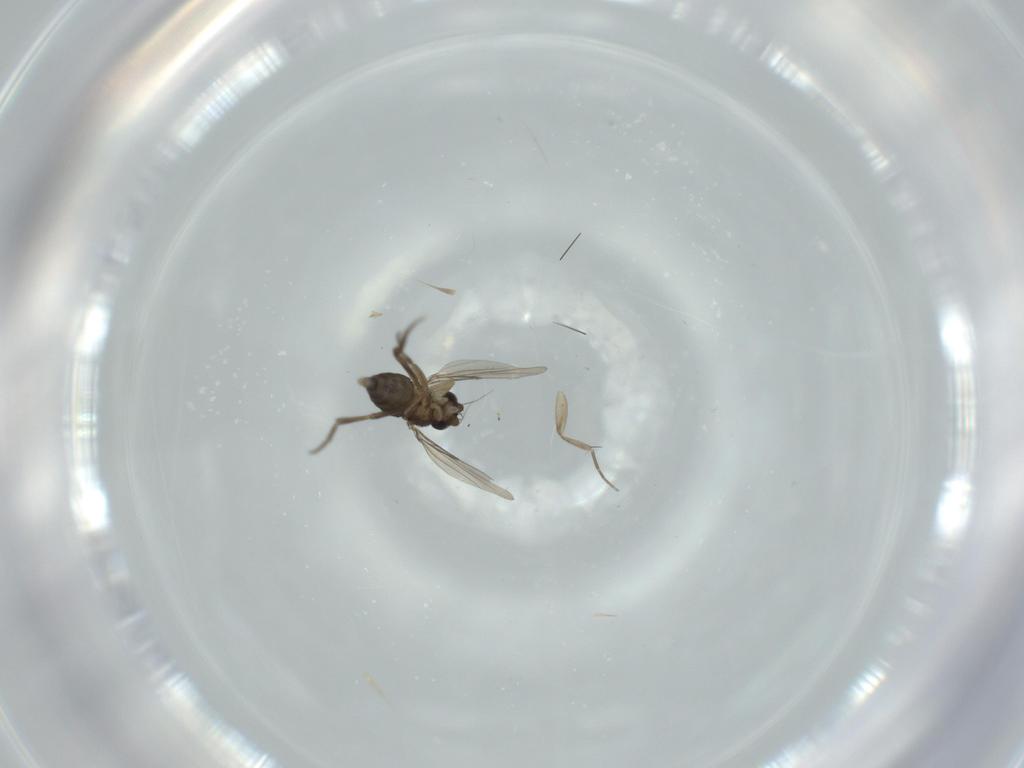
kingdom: Animalia
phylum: Arthropoda
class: Insecta
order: Diptera
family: Phoridae
